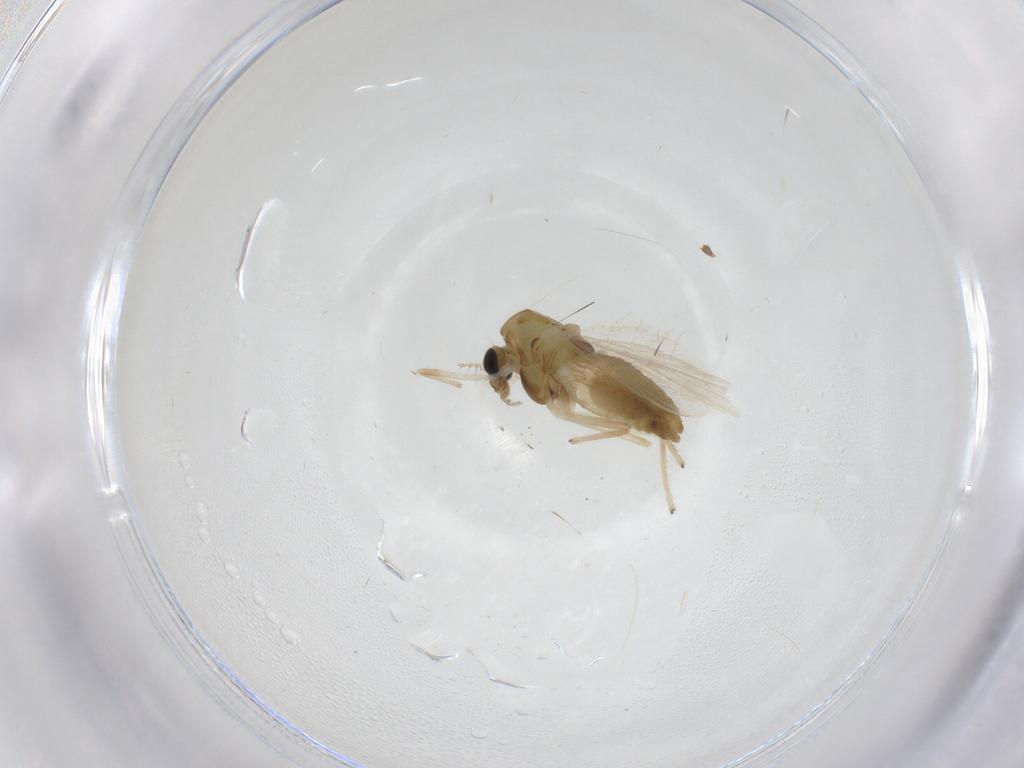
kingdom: Animalia
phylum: Arthropoda
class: Insecta
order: Diptera
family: Chironomidae
